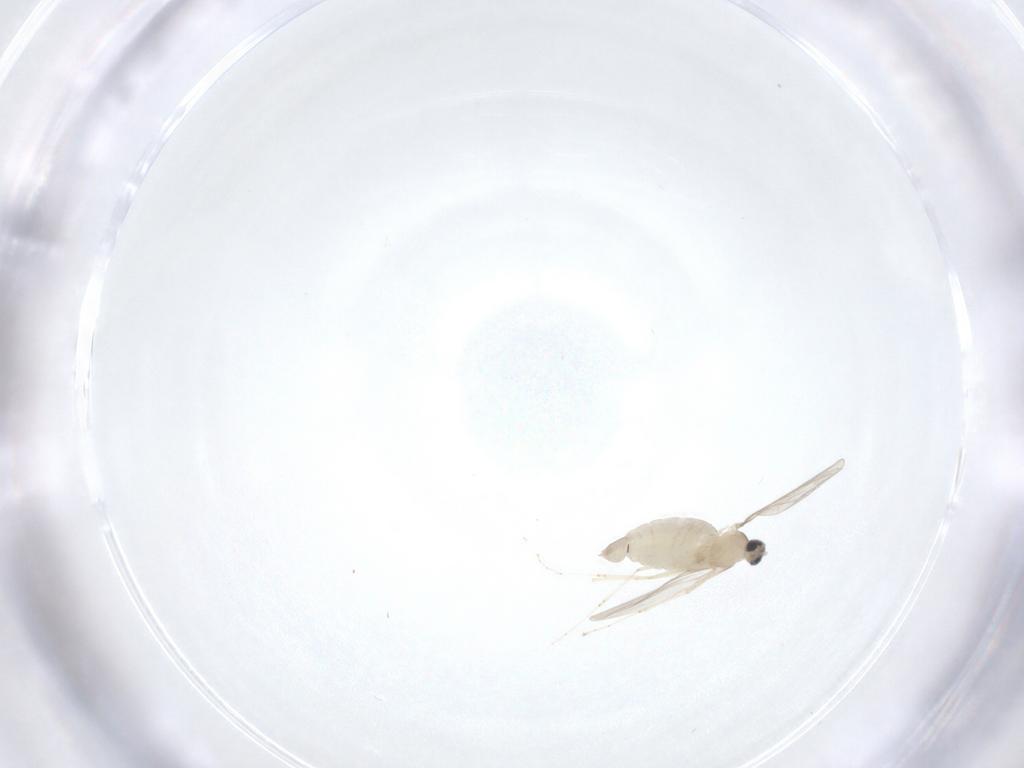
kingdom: Animalia
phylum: Arthropoda
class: Insecta
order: Diptera
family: Cecidomyiidae
